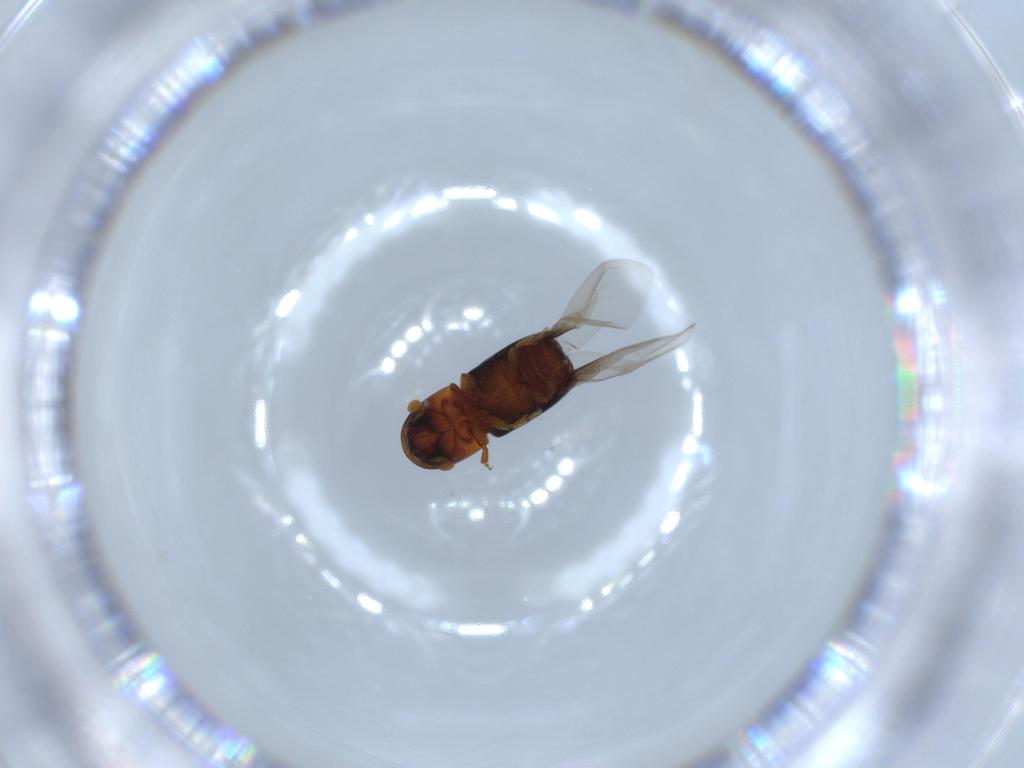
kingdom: Animalia
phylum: Arthropoda
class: Insecta
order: Coleoptera
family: Curculionidae
